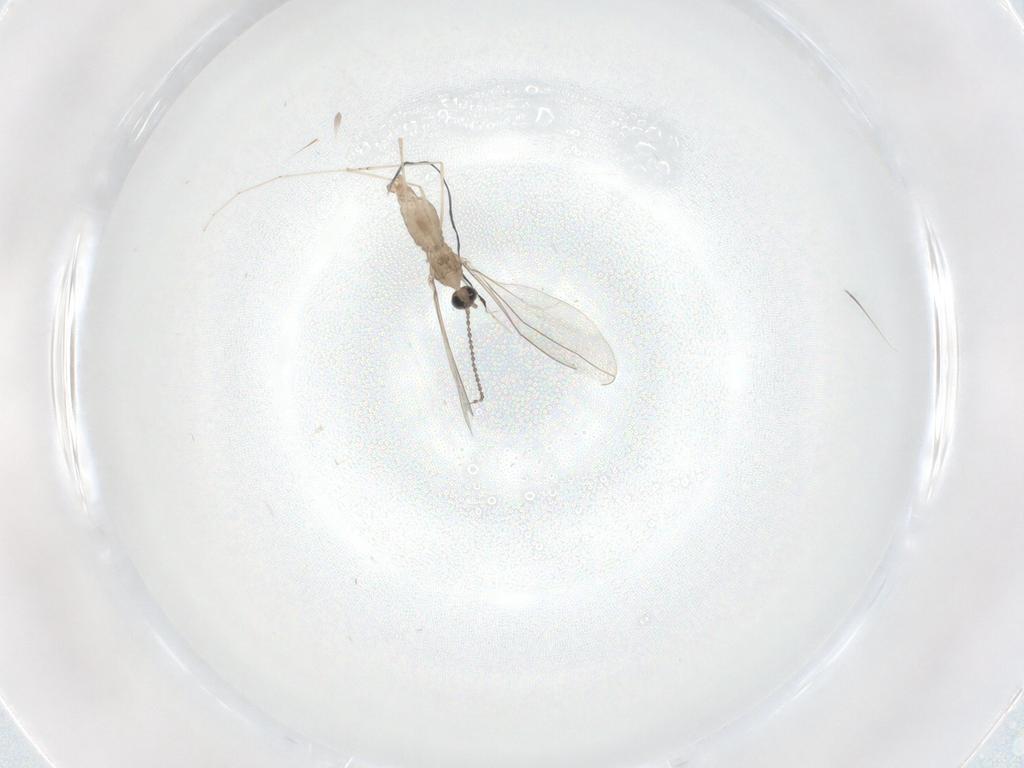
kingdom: Animalia
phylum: Arthropoda
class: Insecta
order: Diptera
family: Cecidomyiidae
